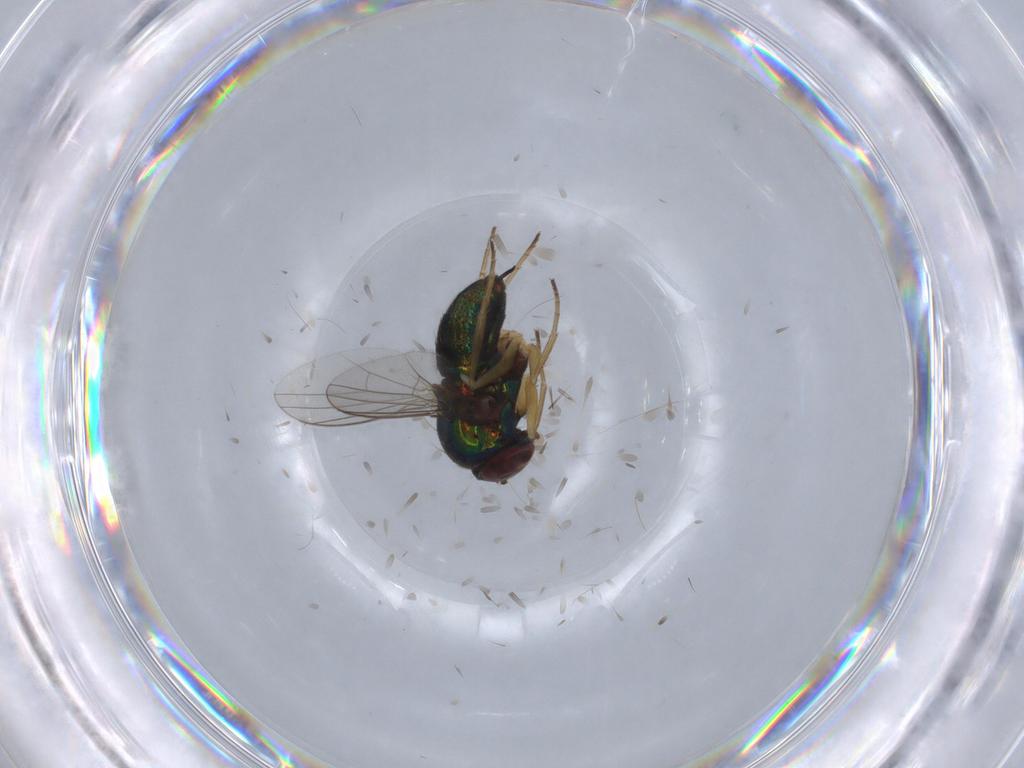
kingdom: Animalia
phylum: Arthropoda
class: Insecta
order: Diptera
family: Dolichopodidae
